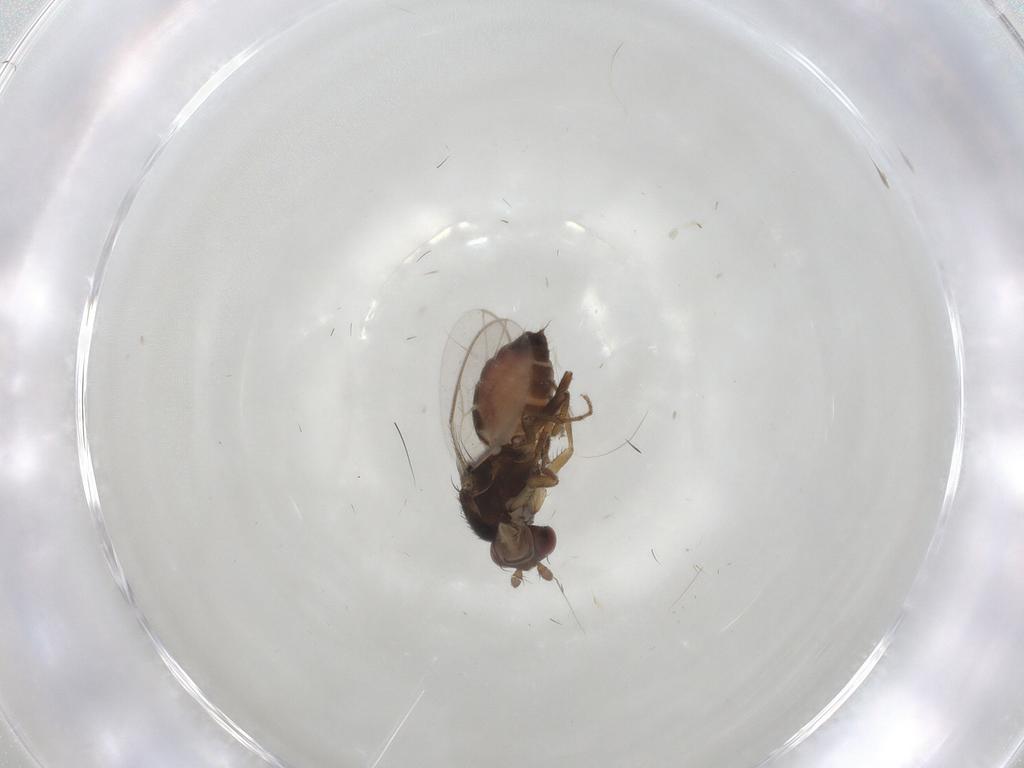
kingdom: Animalia
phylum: Arthropoda
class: Insecta
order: Diptera
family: Sphaeroceridae
